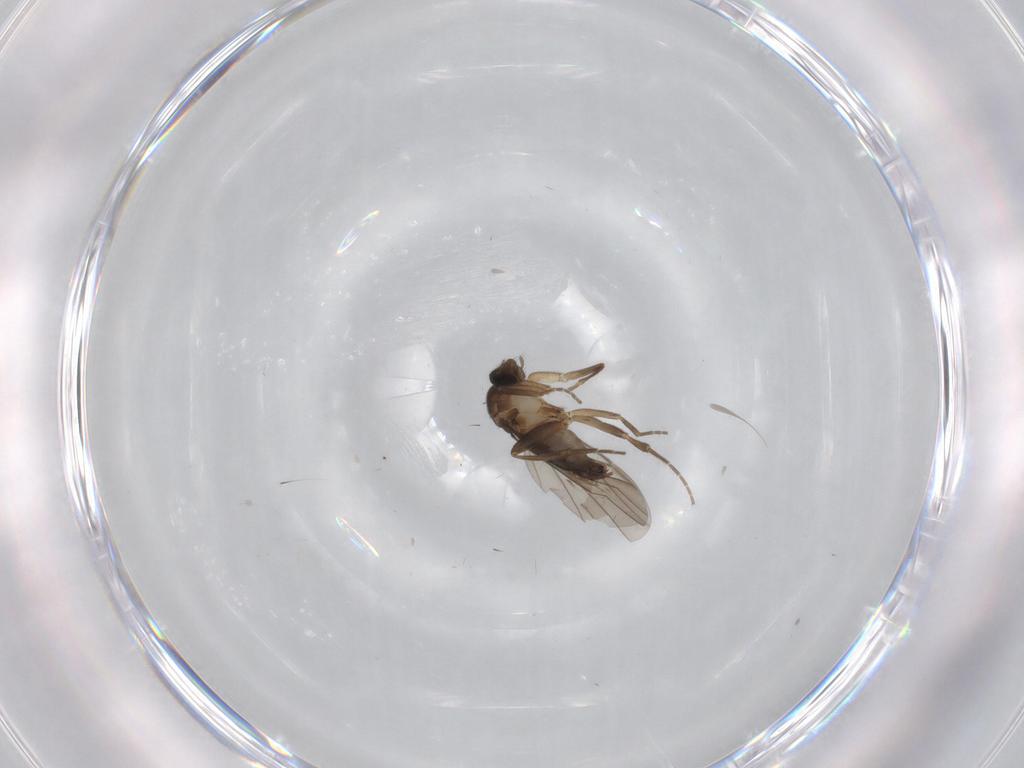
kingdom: Animalia
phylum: Arthropoda
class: Insecta
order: Diptera
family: Phoridae
